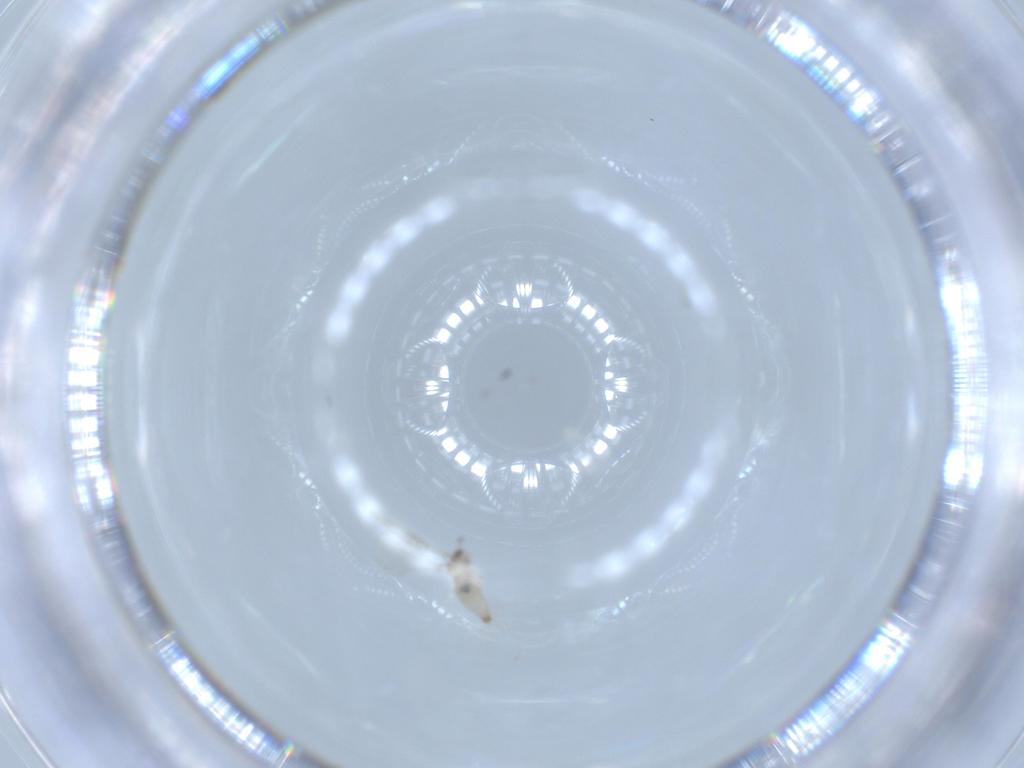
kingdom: Animalia
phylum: Arthropoda
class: Insecta
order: Diptera
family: Cecidomyiidae
